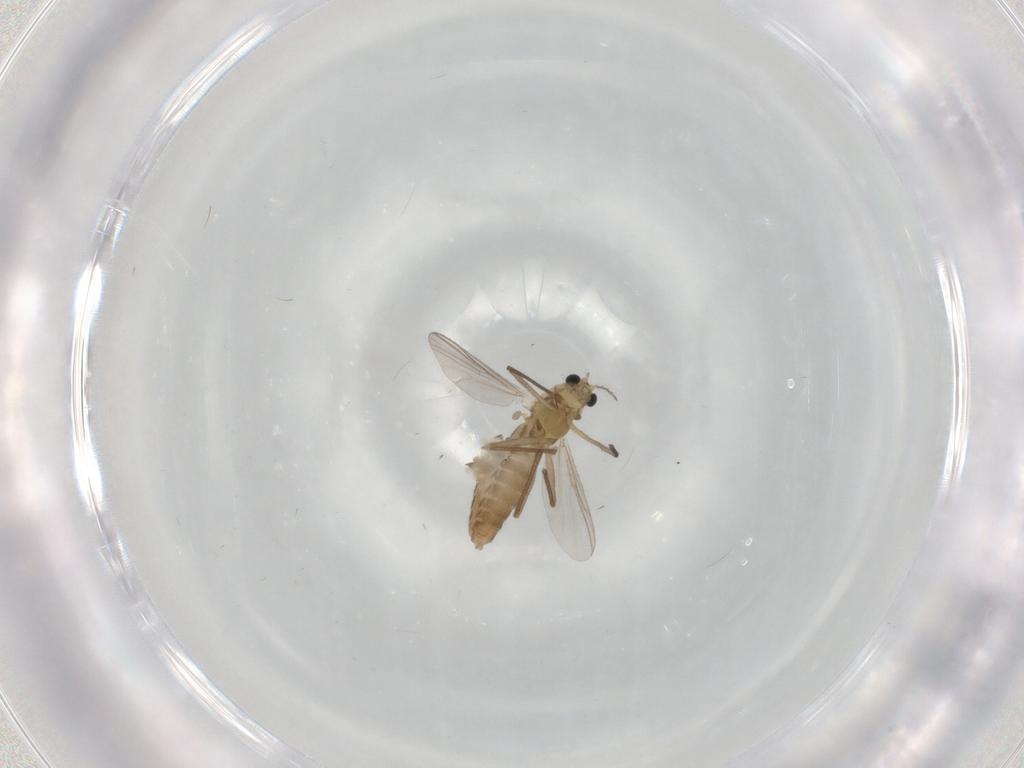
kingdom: Animalia
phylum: Arthropoda
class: Insecta
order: Diptera
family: Chironomidae
